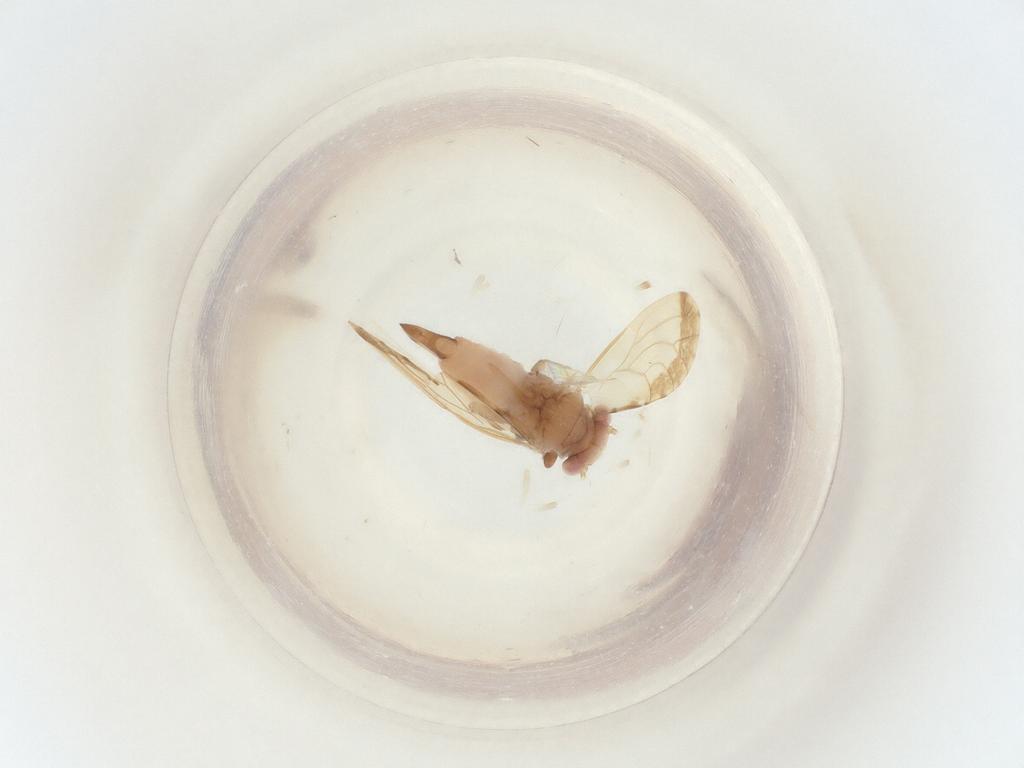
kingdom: Animalia
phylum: Arthropoda
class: Insecta
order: Hemiptera
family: Psyllidae
